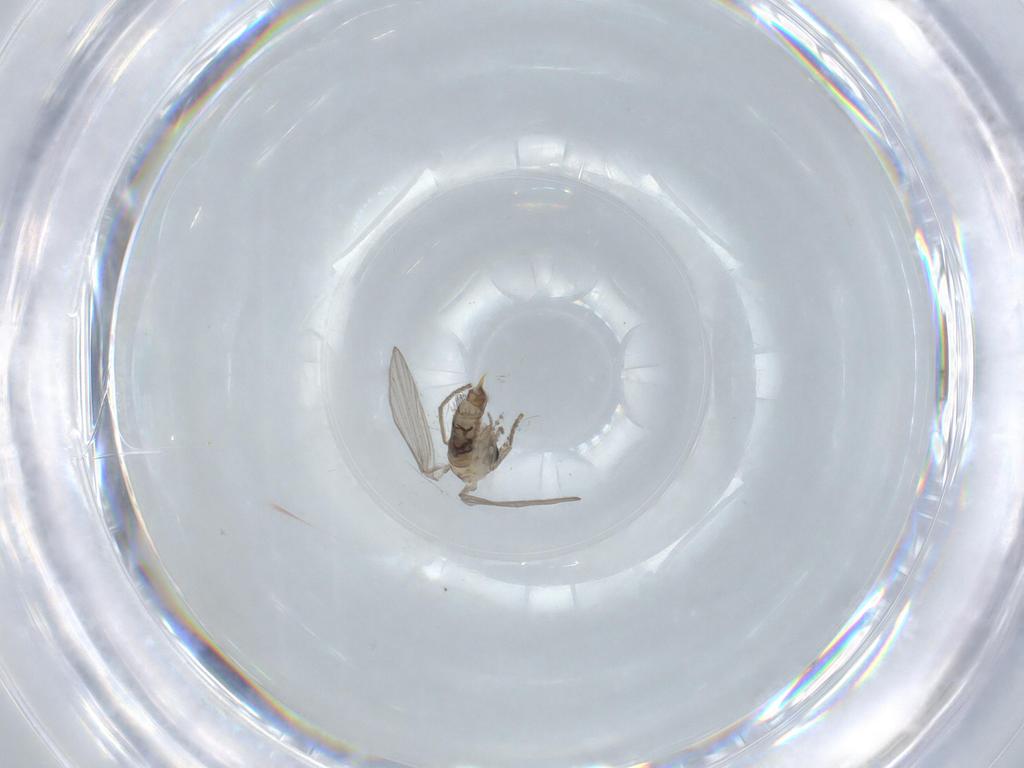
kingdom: Animalia
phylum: Arthropoda
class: Insecta
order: Diptera
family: Psychodidae
